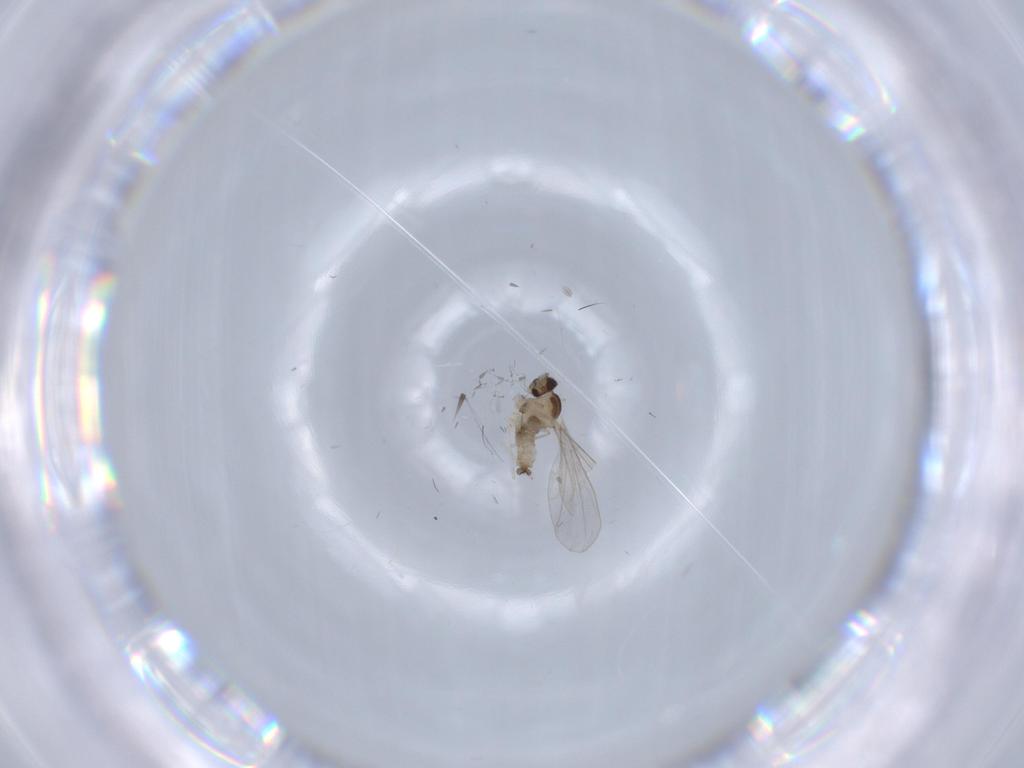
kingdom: Animalia
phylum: Arthropoda
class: Insecta
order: Diptera
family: Cecidomyiidae
